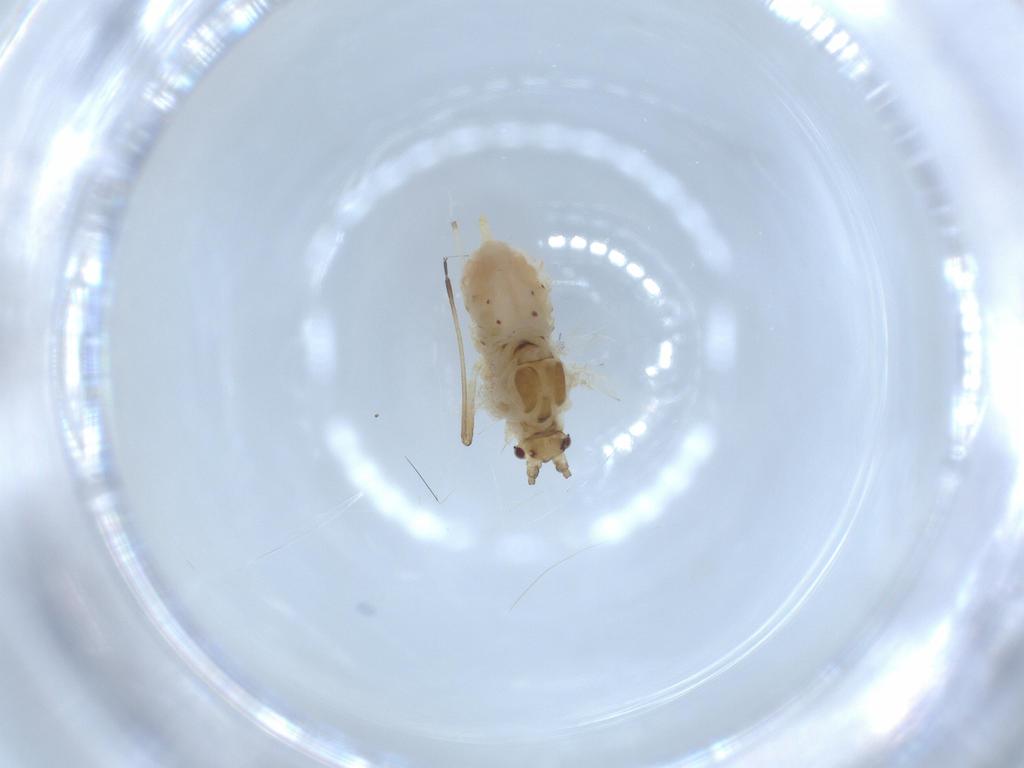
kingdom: Animalia
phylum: Arthropoda
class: Insecta
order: Hemiptera
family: Aphididae
